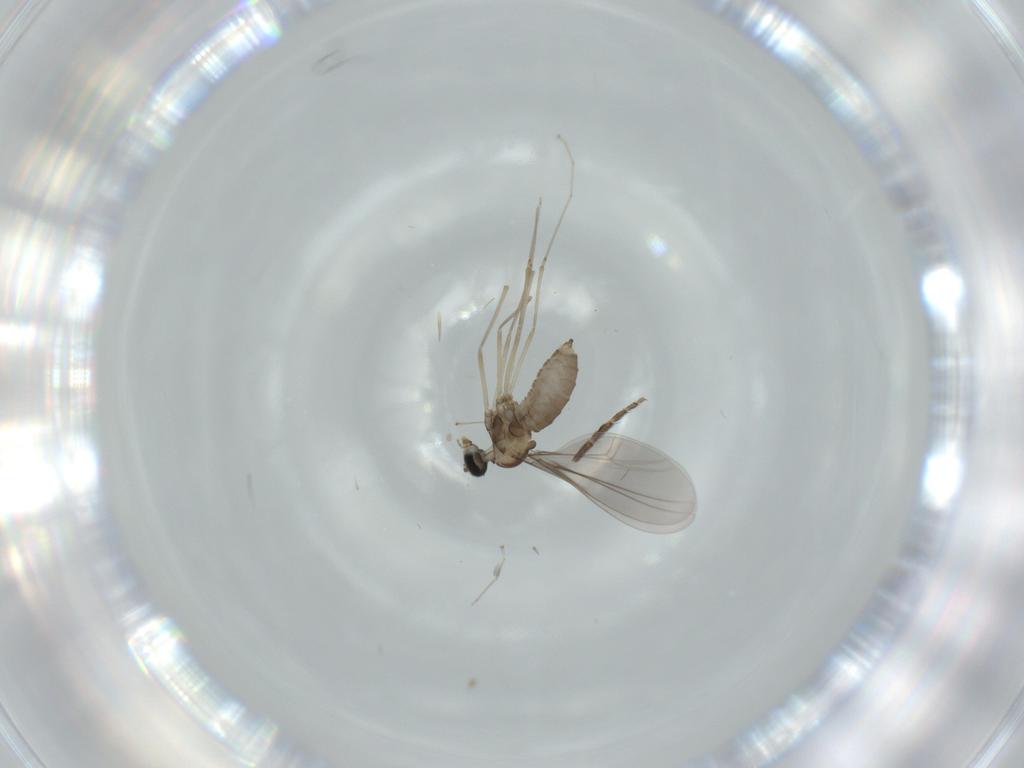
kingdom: Animalia
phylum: Arthropoda
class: Insecta
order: Diptera
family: Ceratopogonidae
